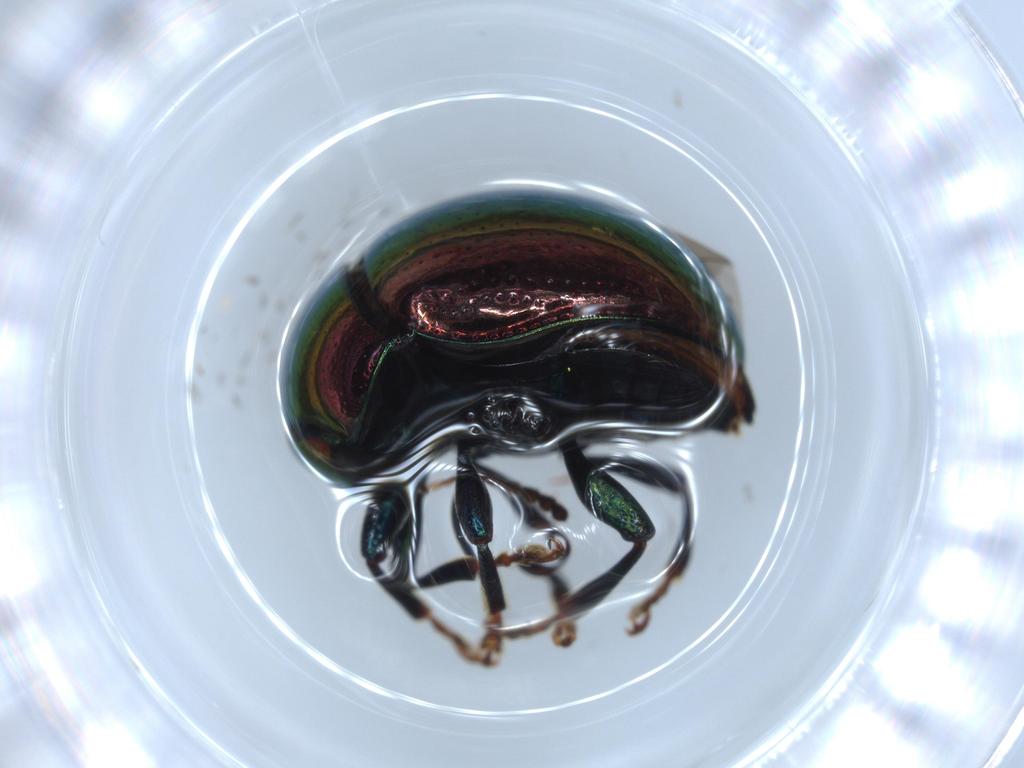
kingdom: Animalia
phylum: Arthropoda
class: Insecta
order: Coleoptera
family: Chrysomelidae
